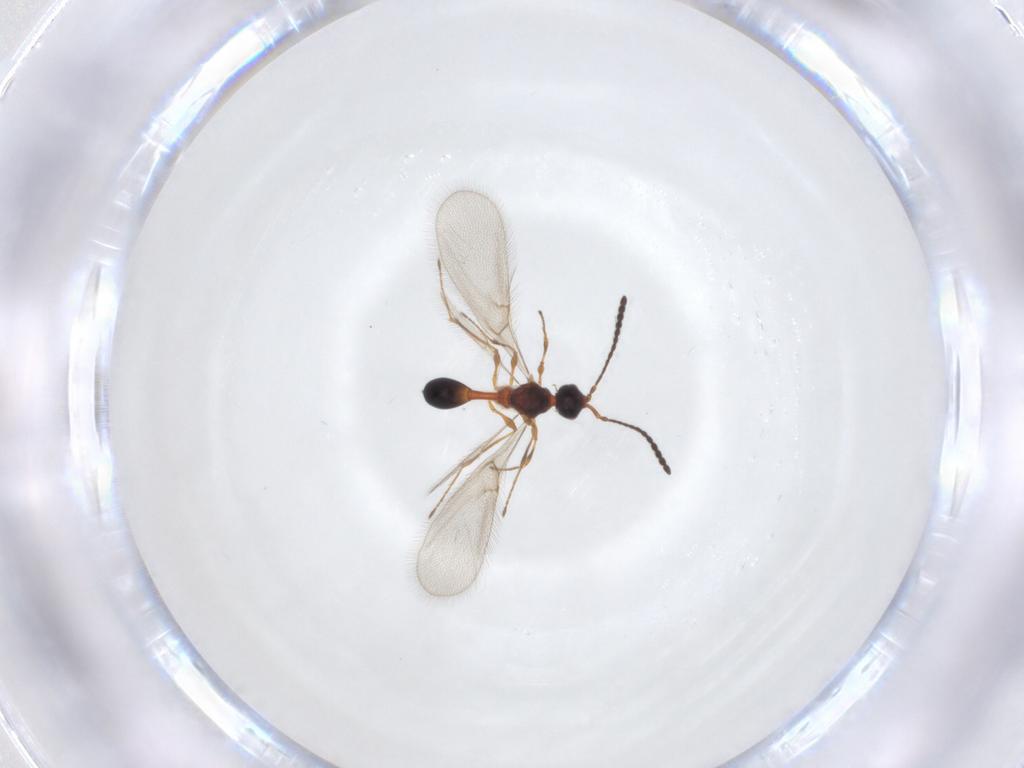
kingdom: Animalia
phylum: Arthropoda
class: Insecta
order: Hymenoptera
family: Diapriidae
